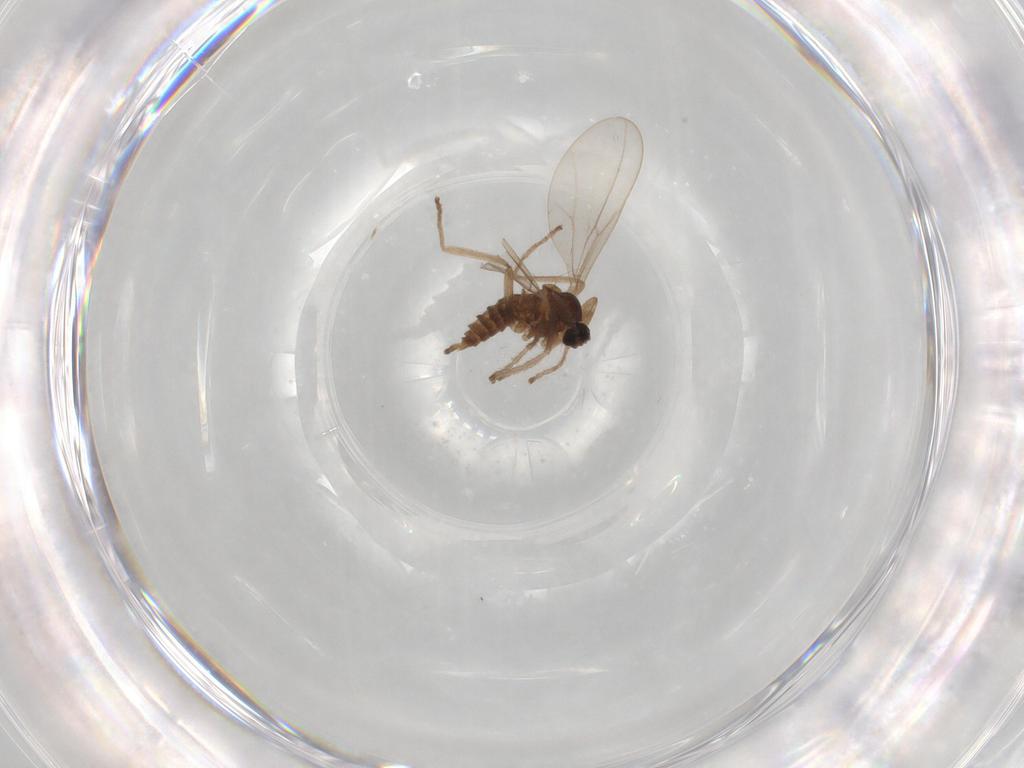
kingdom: Animalia
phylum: Arthropoda
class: Insecta
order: Diptera
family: Cecidomyiidae
